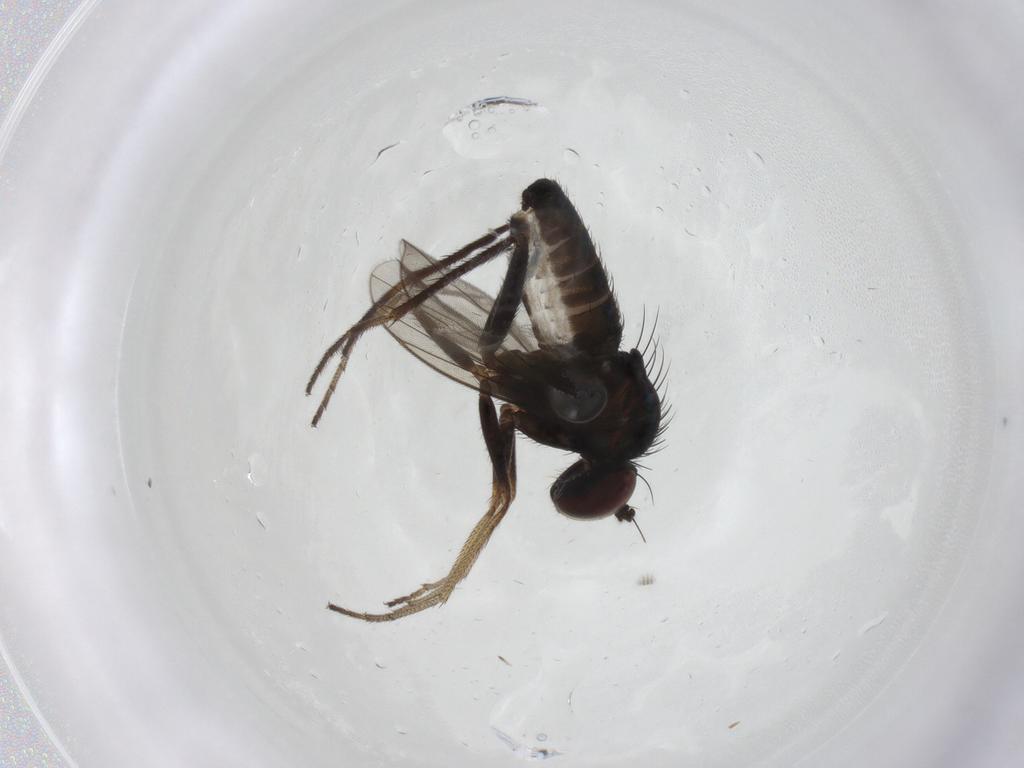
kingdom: Animalia
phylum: Arthropoda
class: Insecta
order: Diptera
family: Dolichopodidae
